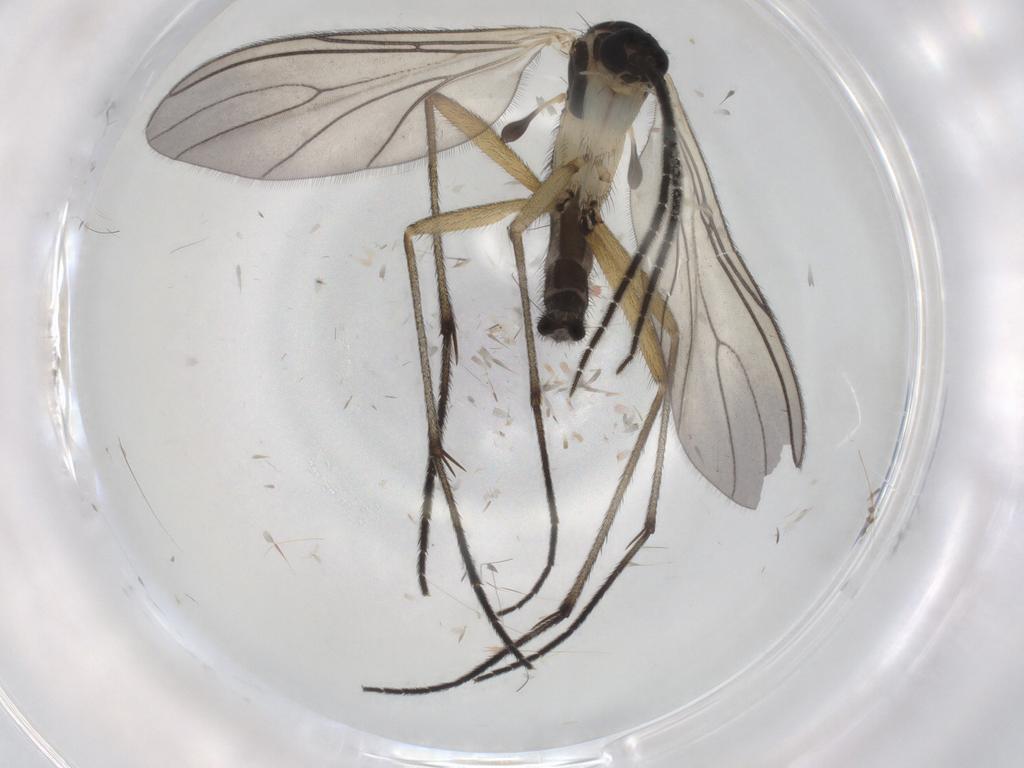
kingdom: Animalia
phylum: Arthropoda
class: Insecta
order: Diptera
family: Sciaridae
